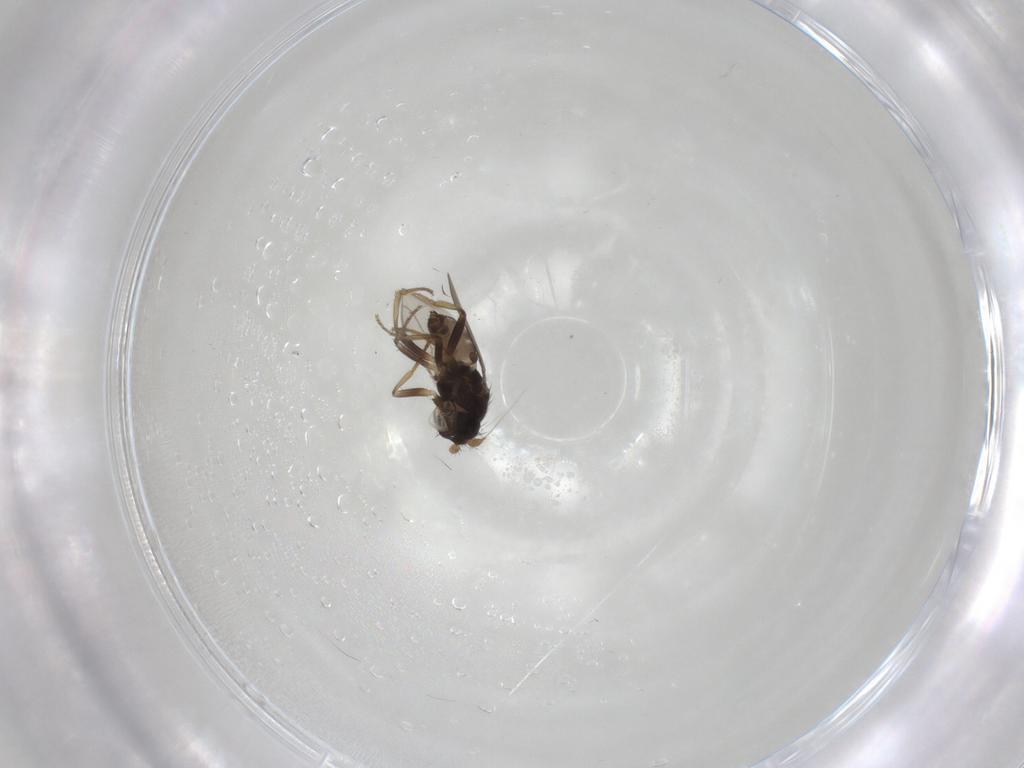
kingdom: Animalia
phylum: Arthropoda
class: Insecta
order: Diptera
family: Sphaeroceridae
